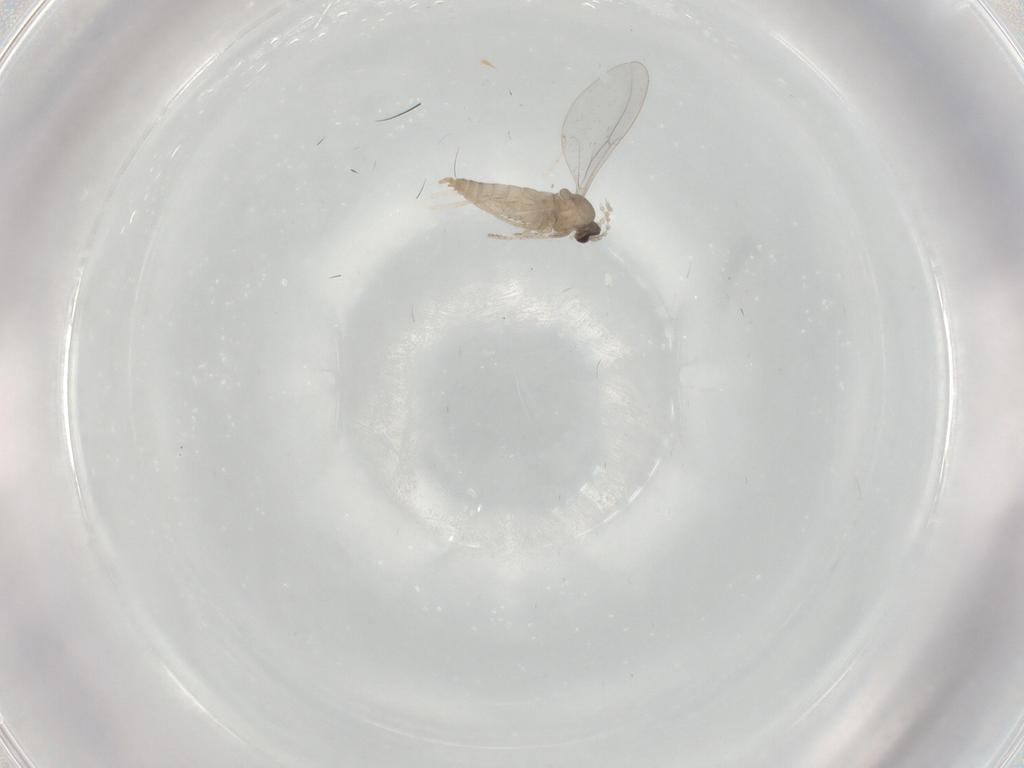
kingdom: Animalia
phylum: Arthropoda
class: Insecta
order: Diptera
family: Cecidomyiidae
